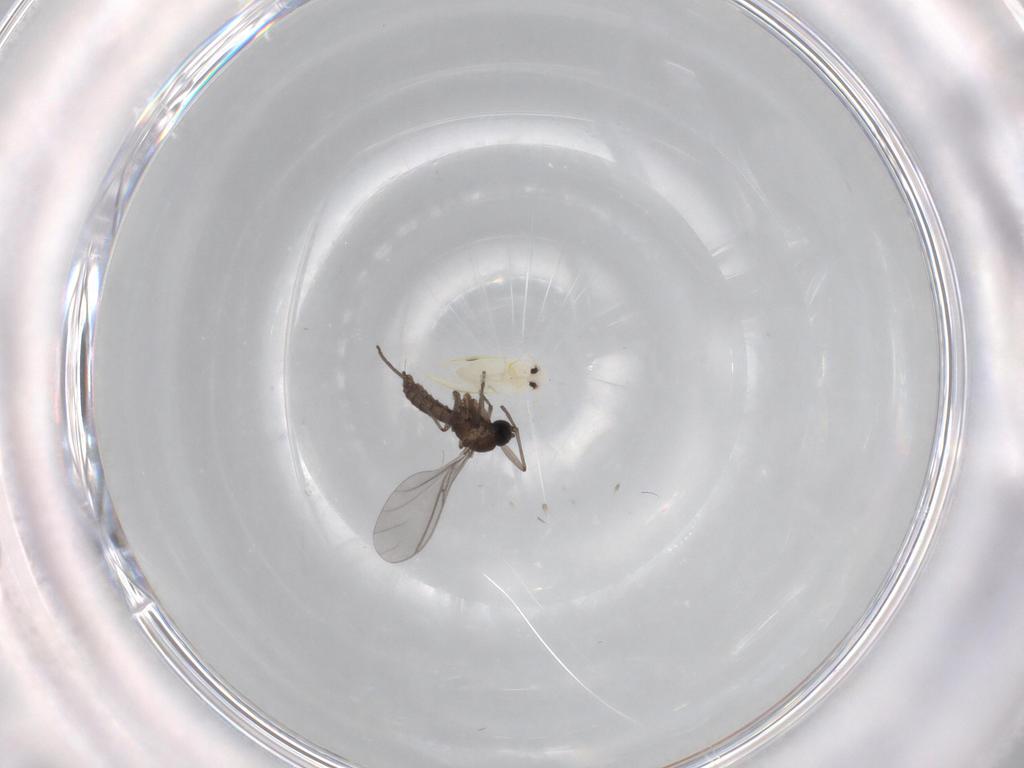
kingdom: Animalia
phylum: Arthropoda
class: Insecta
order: Diptera
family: Sciaridae
